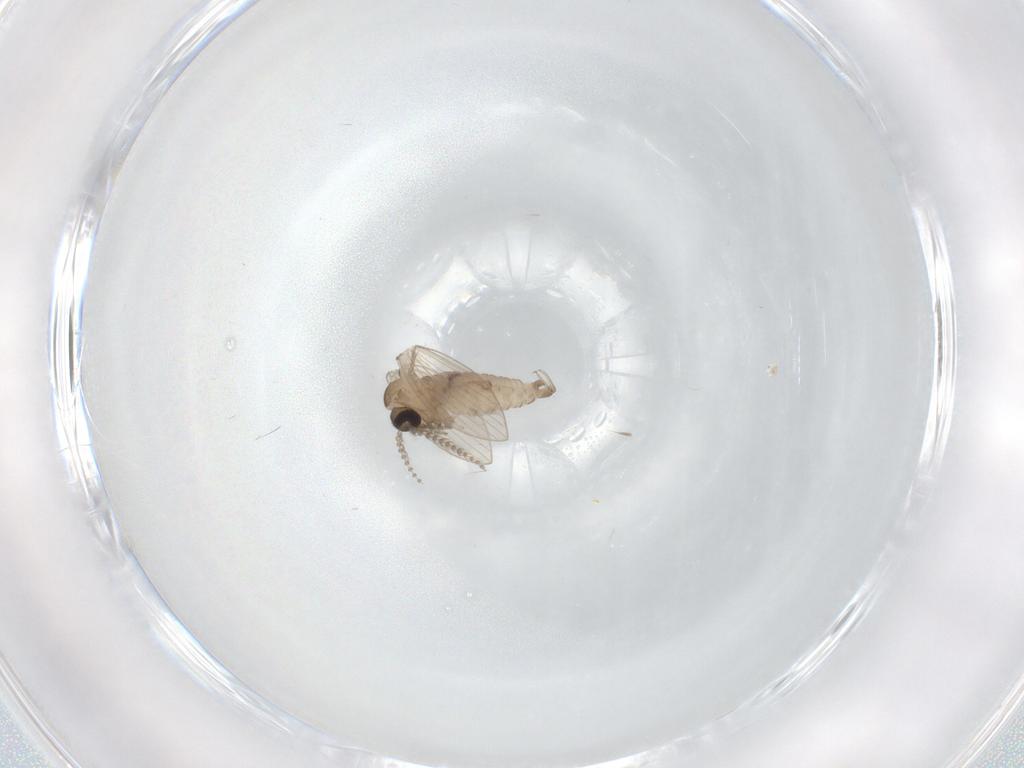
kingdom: Animalia
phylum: Arthropoda
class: Insecta
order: Diptera
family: Psychodidae
